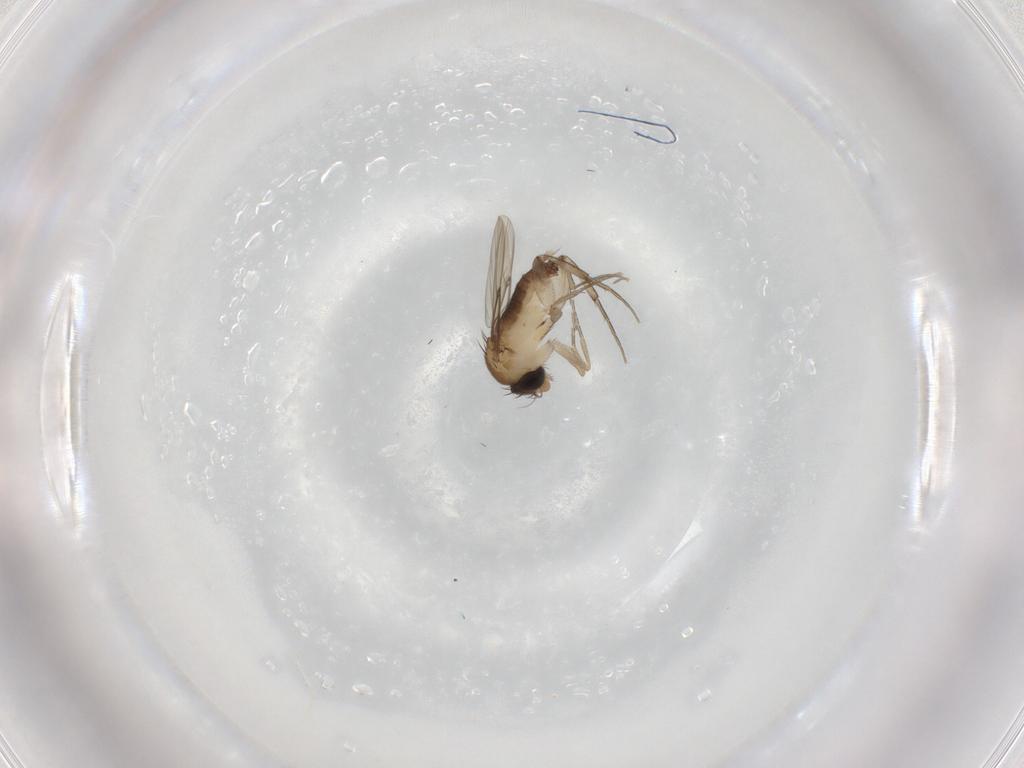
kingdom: Animalia
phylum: Arthropoda
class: Insecta
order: Diptera
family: Phoridae
